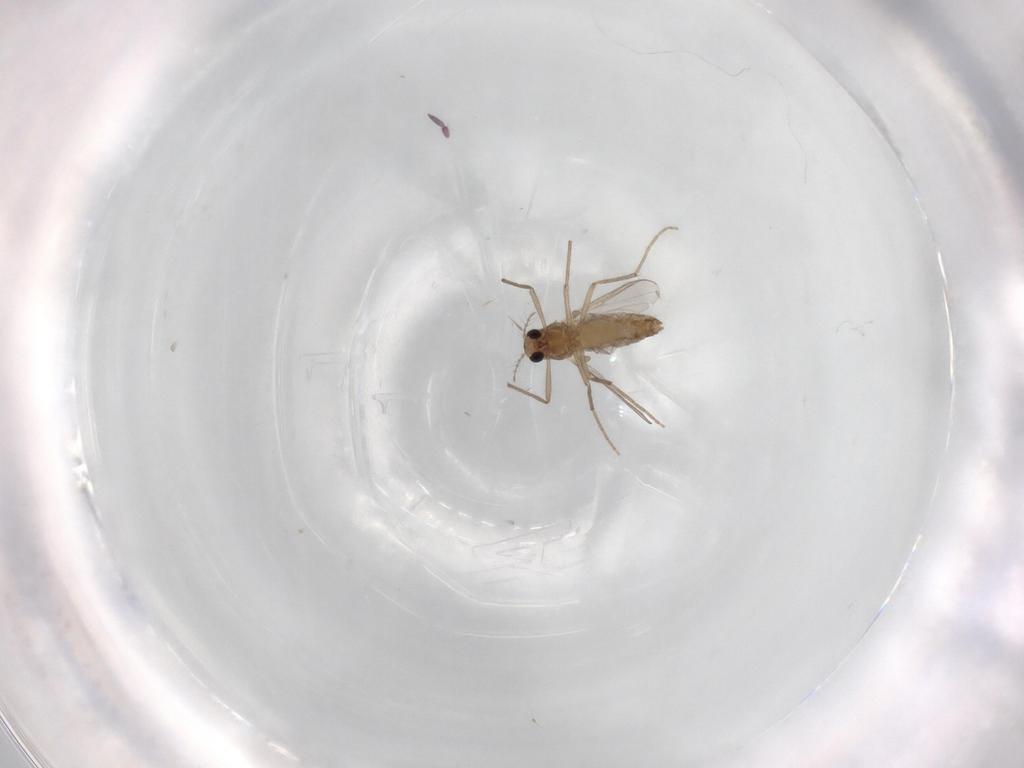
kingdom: Animalia
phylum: Arthropoda
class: Insecta
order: Diptera
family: Chironomidae
